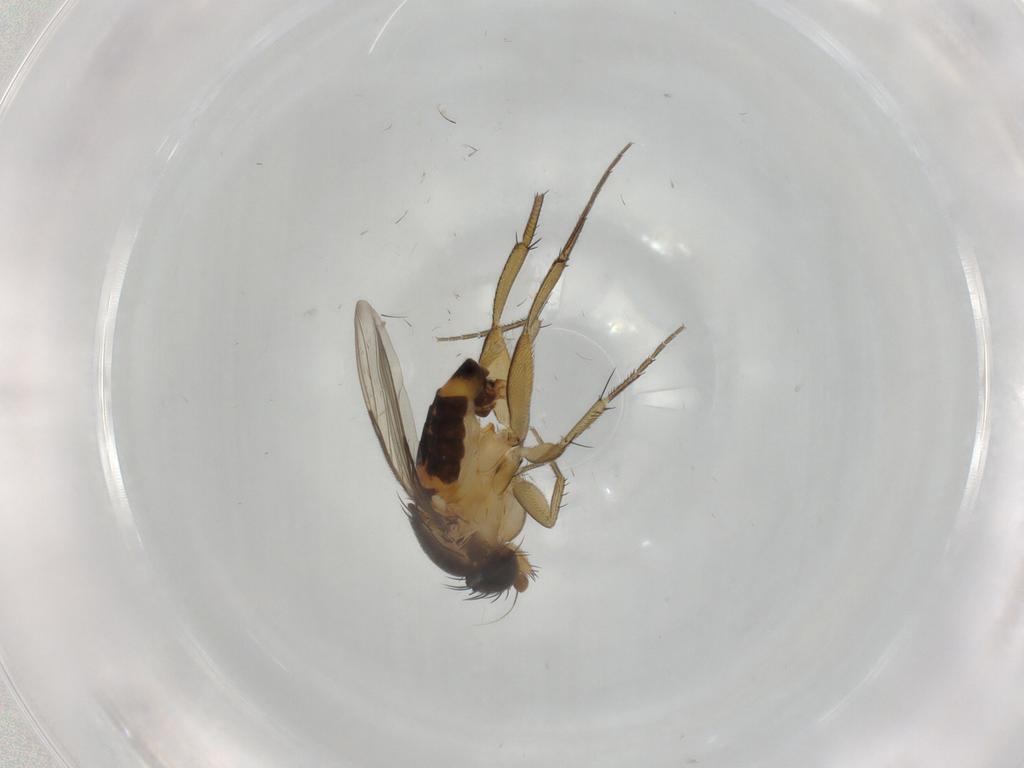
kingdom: Animalia
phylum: Arthropoda
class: Insecta
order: Diptera
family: Ceratopogonidae
